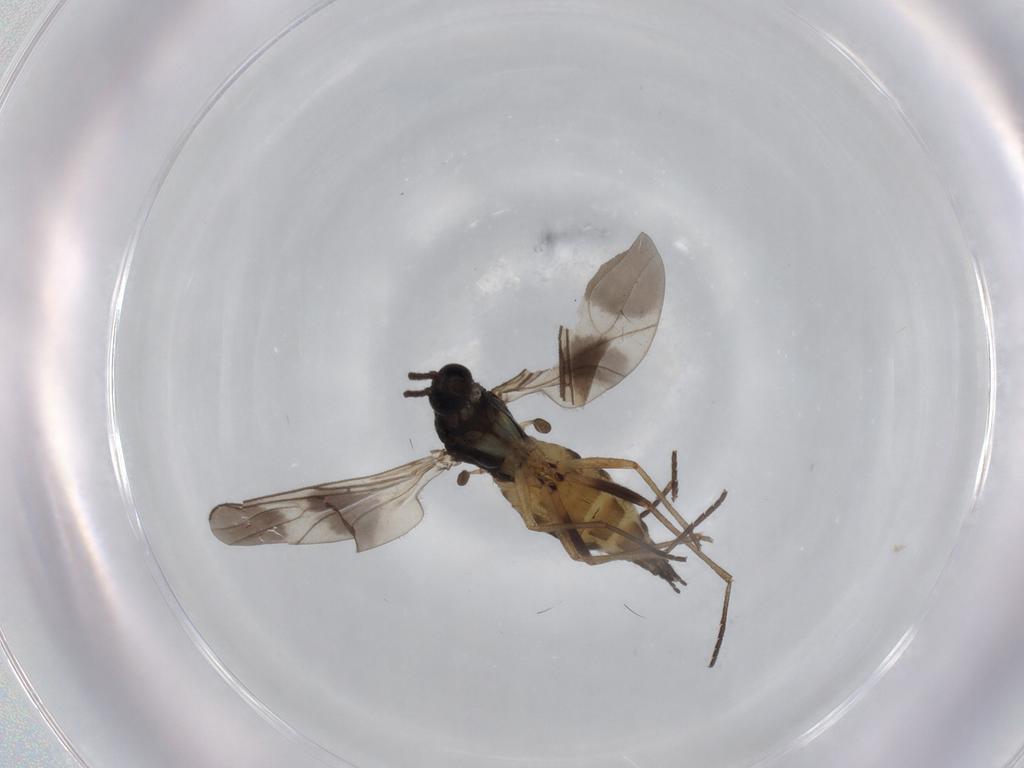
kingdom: Animalia
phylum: Arthropoda
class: Insecta
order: Diptera
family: Sciaridae
